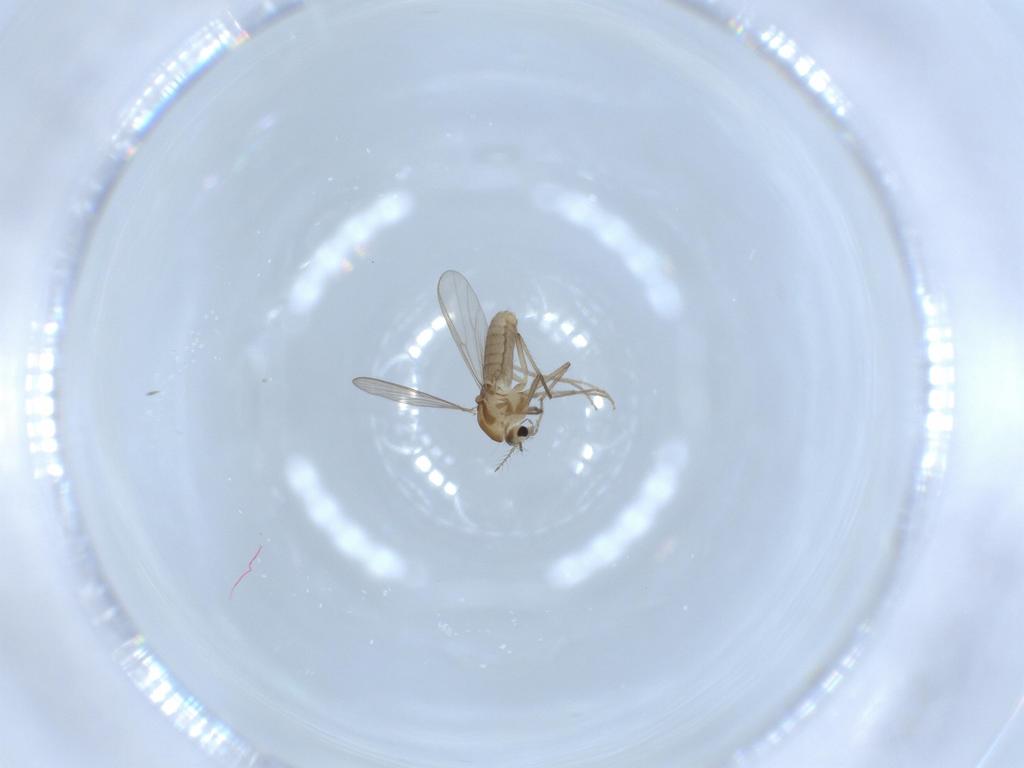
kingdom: Animalia
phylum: Arthropoda
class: Insecta
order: Diptera
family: Chironomidae
